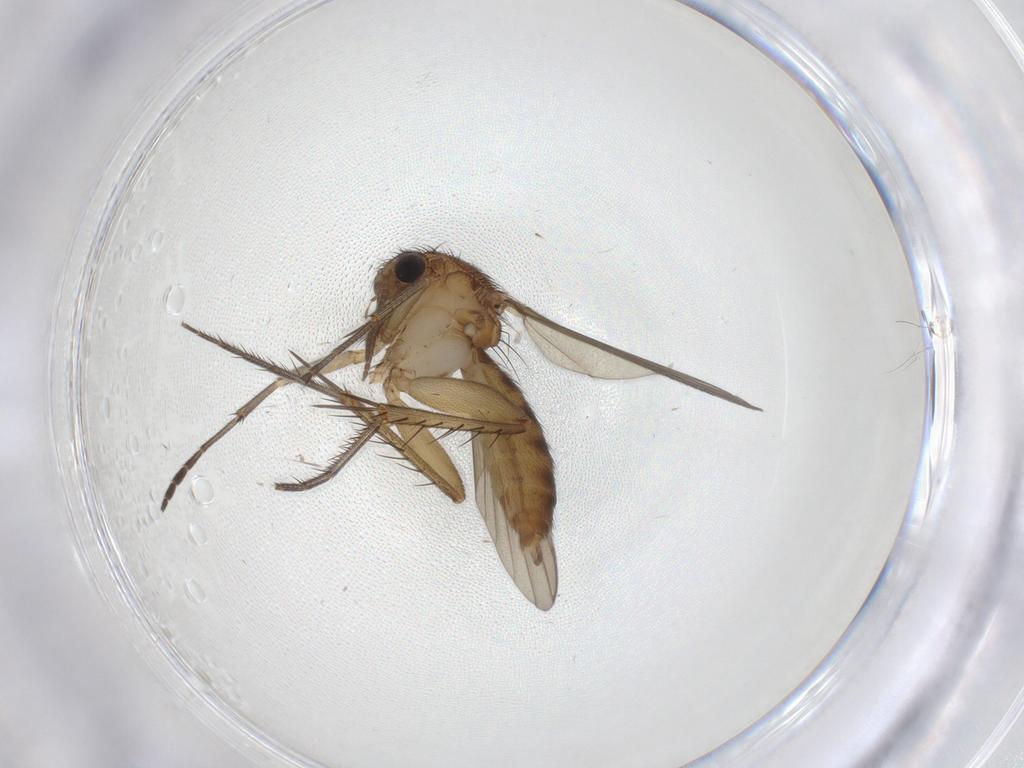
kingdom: Animalia
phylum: Arthropoda
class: Insecta
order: Diptera
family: Mycetophilidae
